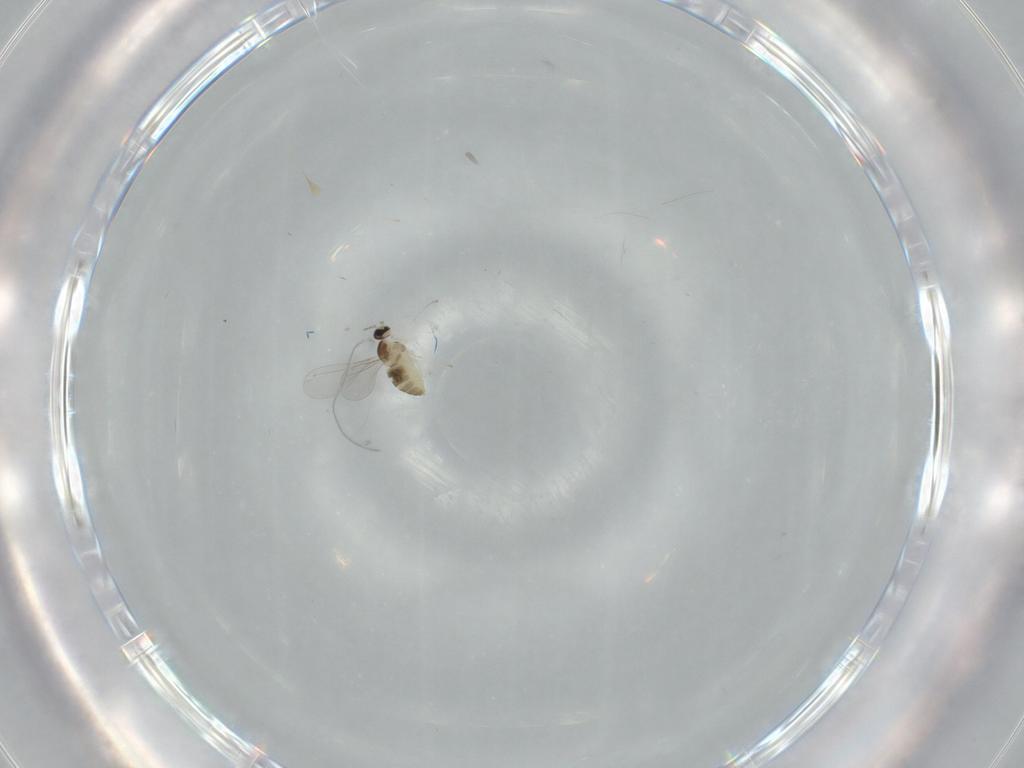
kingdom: Animalia
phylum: Arthropoda
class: Insecta
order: Diptera
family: Cecidomyiidae
